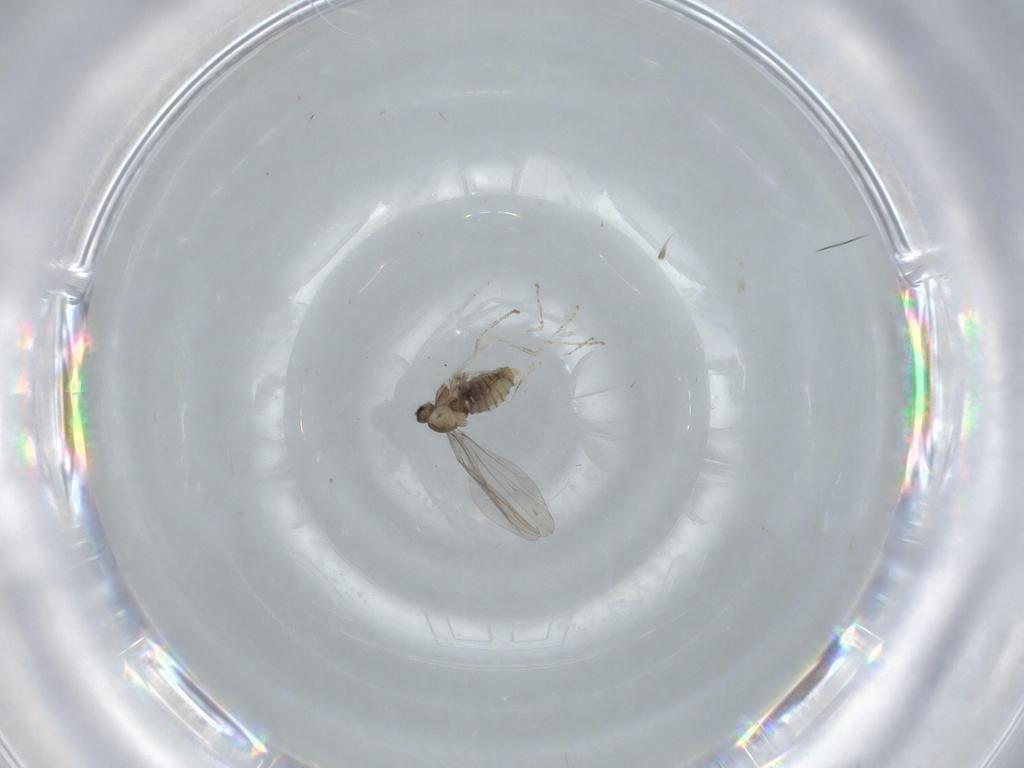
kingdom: Animalia
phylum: Arthropoda
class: Insecta
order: Diptera
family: Cecidomyiidae
